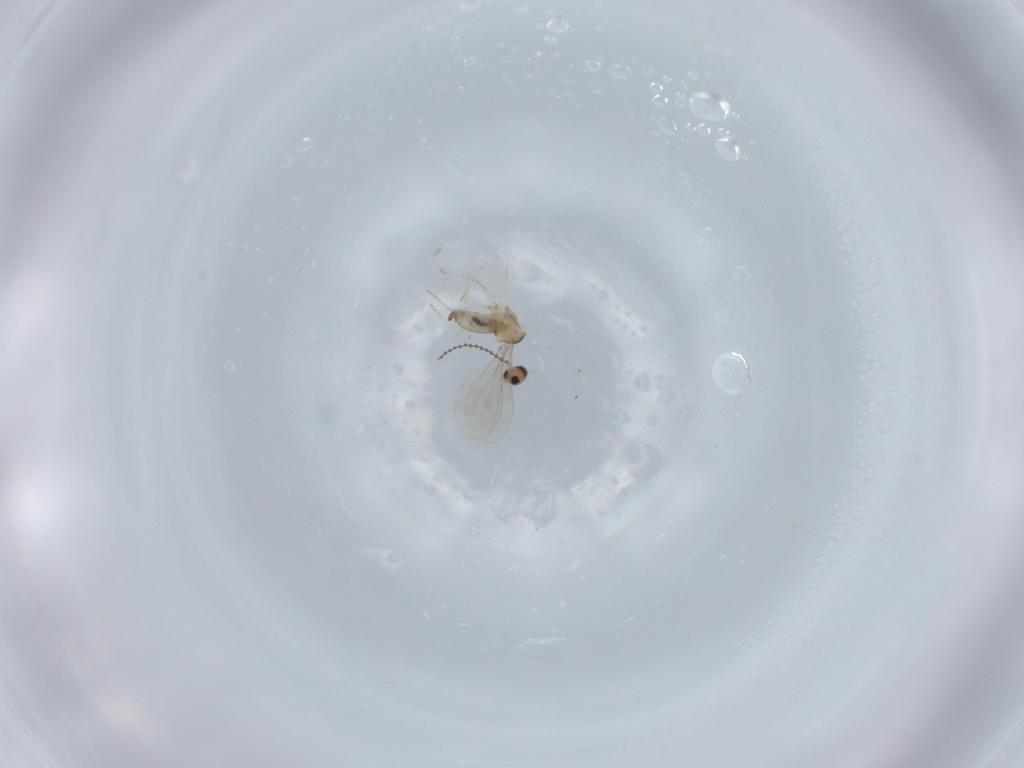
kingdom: Animalia
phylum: Arthropoda
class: Insecta
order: Diptera
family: Cecidomyiidae
